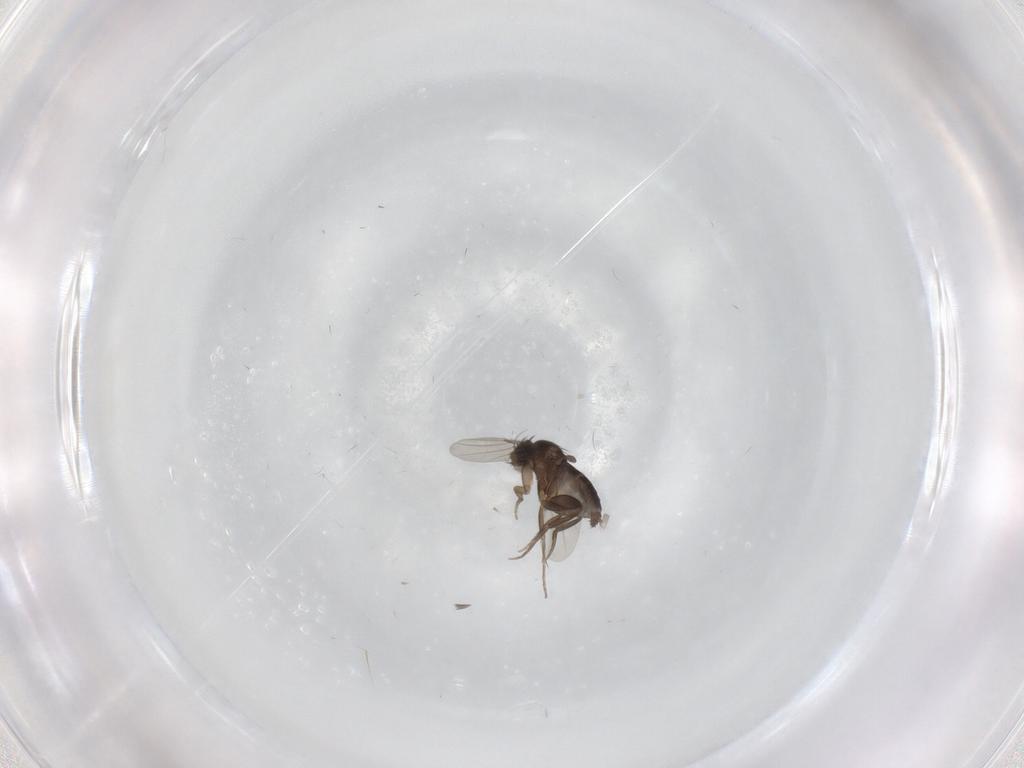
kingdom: Animalia
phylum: Arthropoda
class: Insecta
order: Diptera
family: Phoridae
